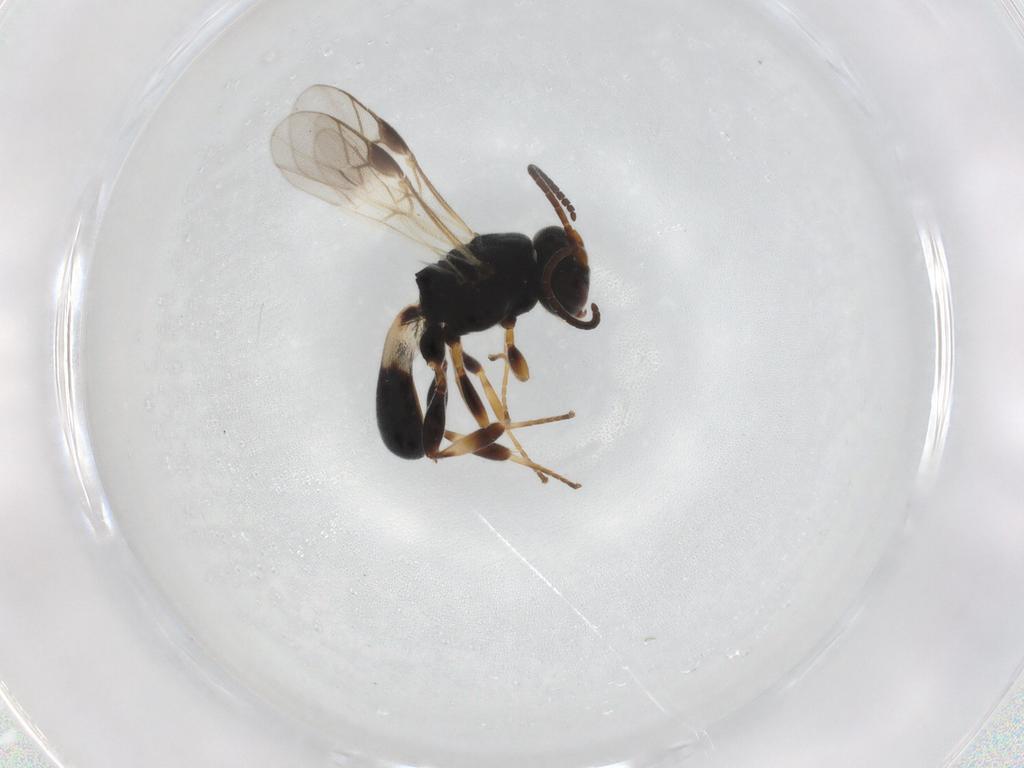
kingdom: Animalia
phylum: Arthropoda
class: Insecta
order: Hymenoptera
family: Braconidae
